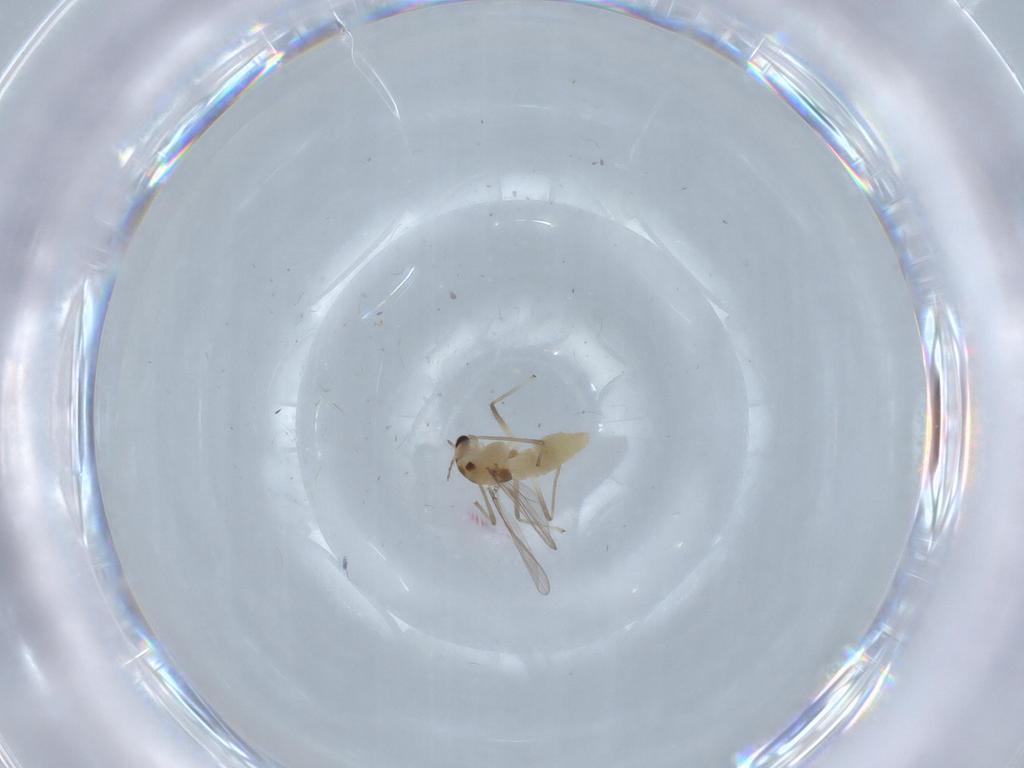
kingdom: Animalia
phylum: Arthropoda
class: Insecta
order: Diptera
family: Chironomidae
